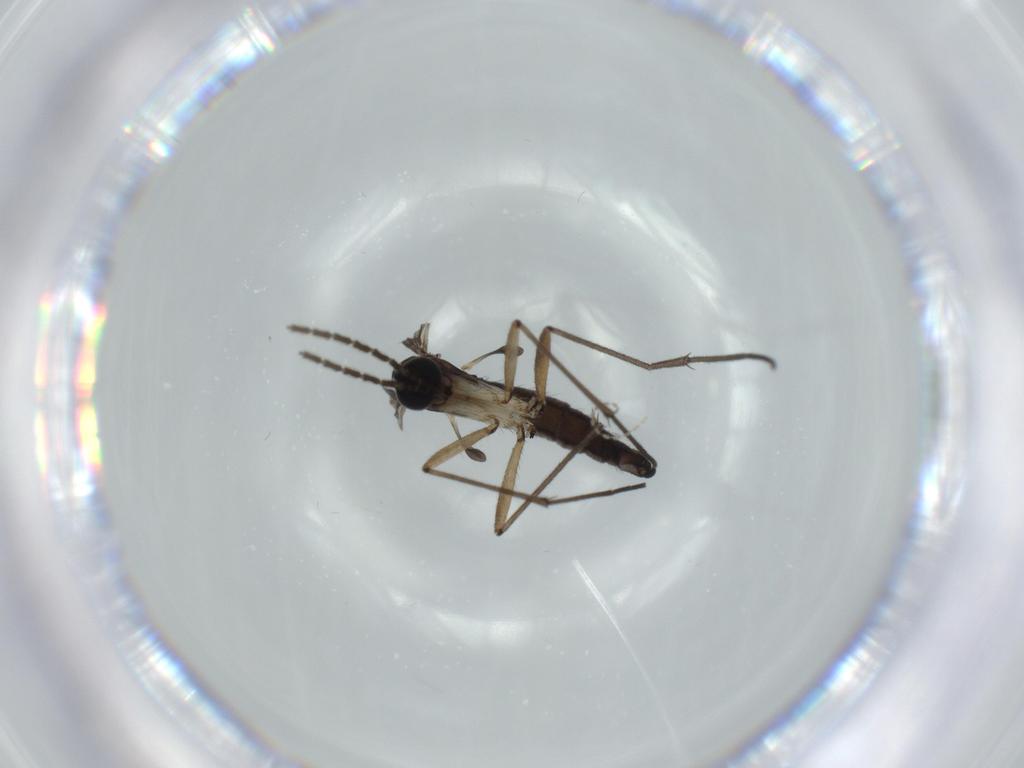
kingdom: Animalia
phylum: Arthropoda
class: Insecta
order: Diptera
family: Sciaridae
